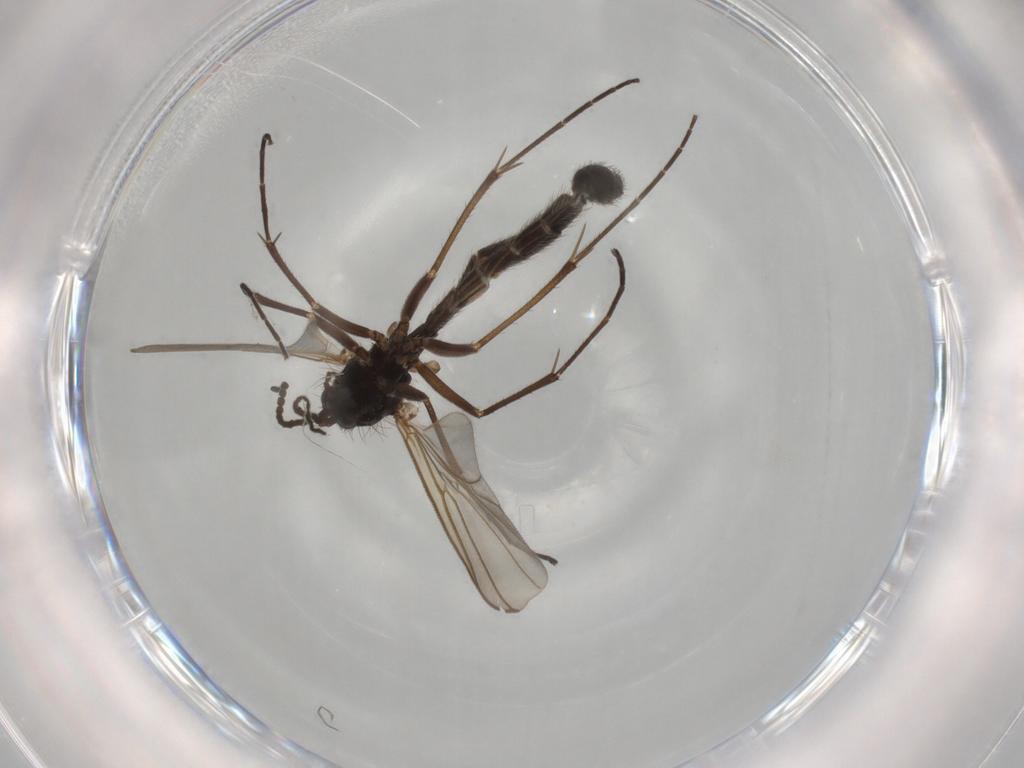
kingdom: Animalia
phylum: Arthropoda
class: Insecta
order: Diptera
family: Mycetophilidae
